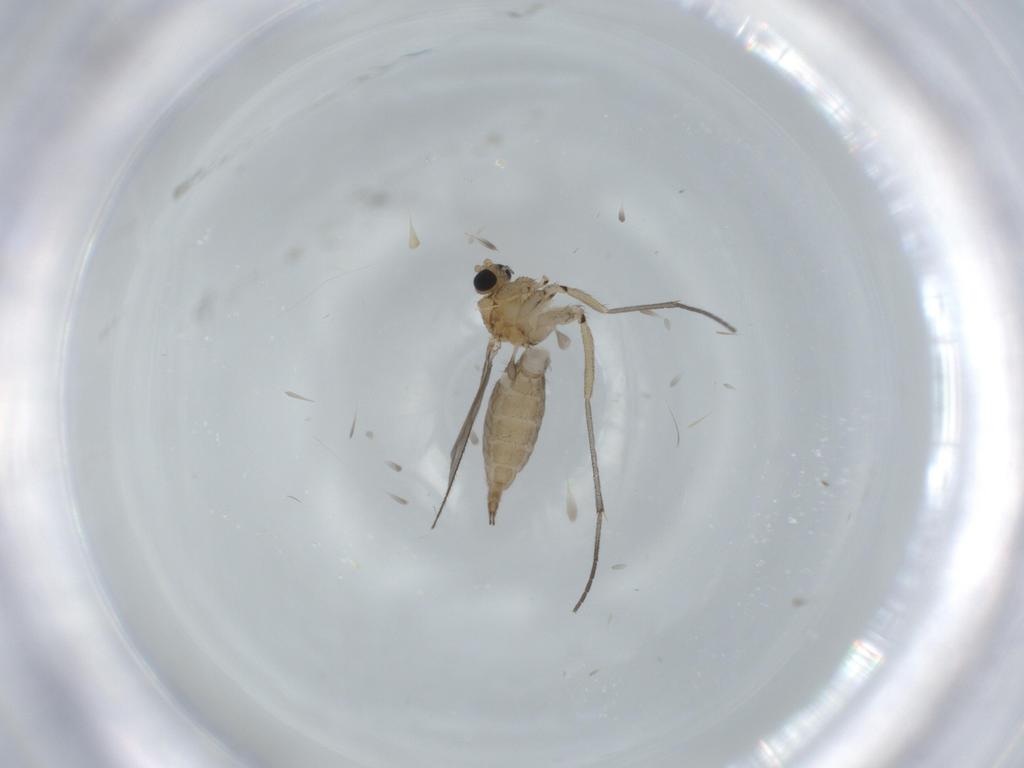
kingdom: Animalia
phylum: Arthropoda
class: Insecta
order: Diptera
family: Sciaridae
